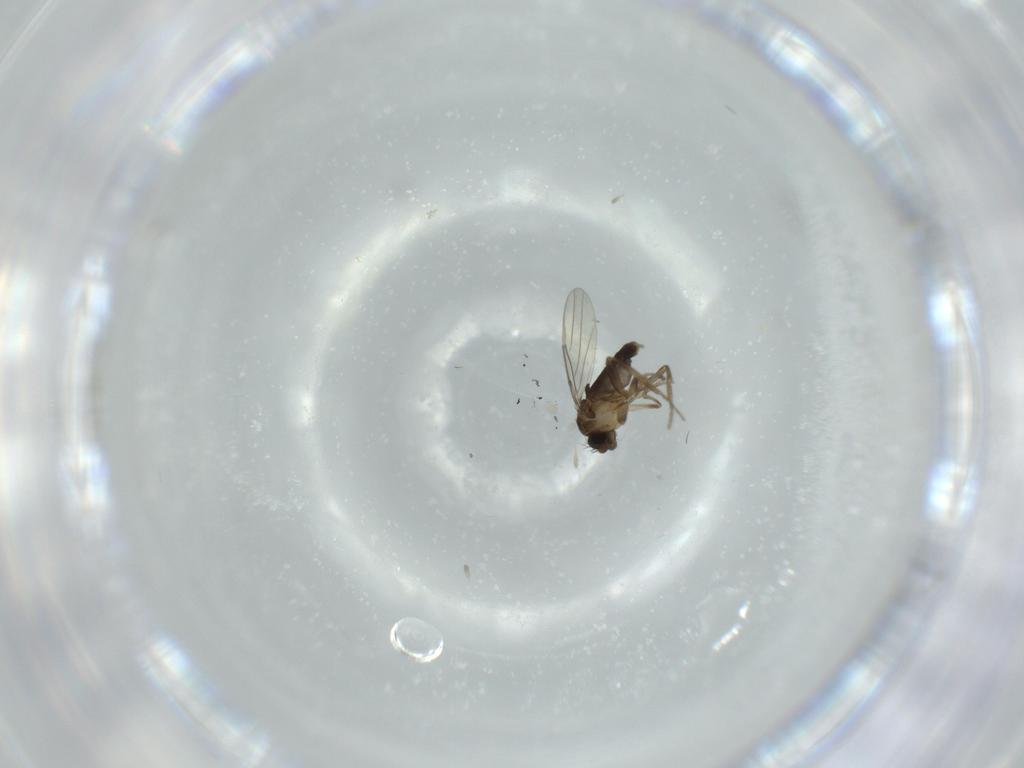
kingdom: Animalia
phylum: Arthropoda
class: Insecta
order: Diptera
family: Phoridae
